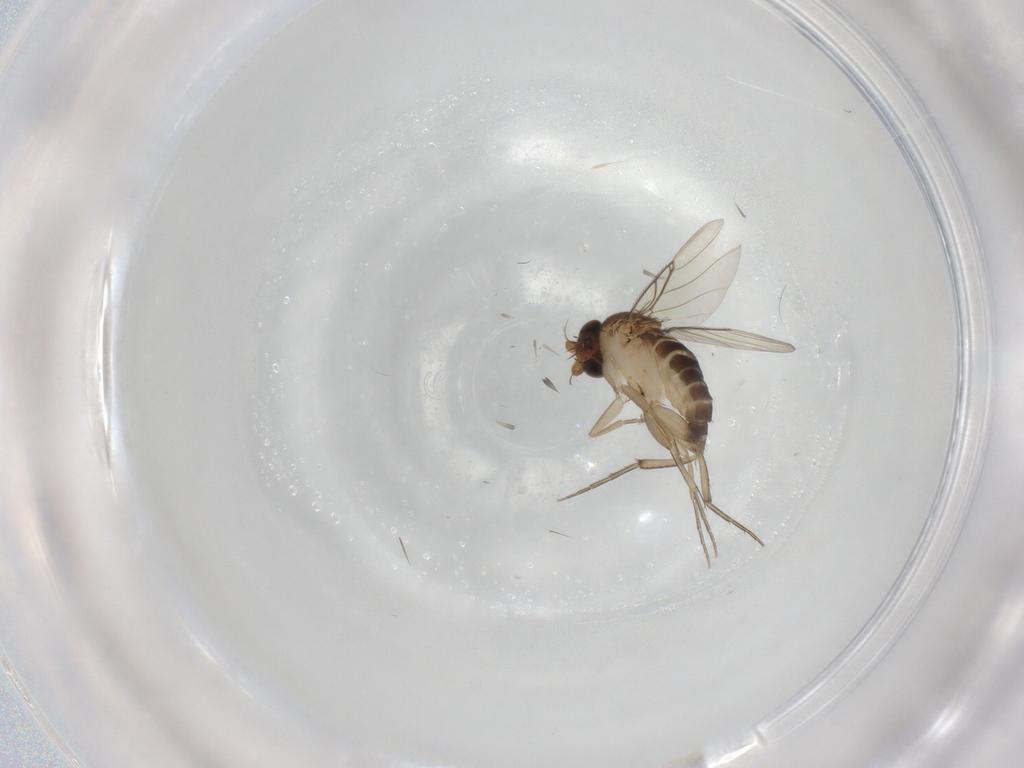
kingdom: Animalia
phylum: Arthropoda
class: Insecta
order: Diptera
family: Phoridae
